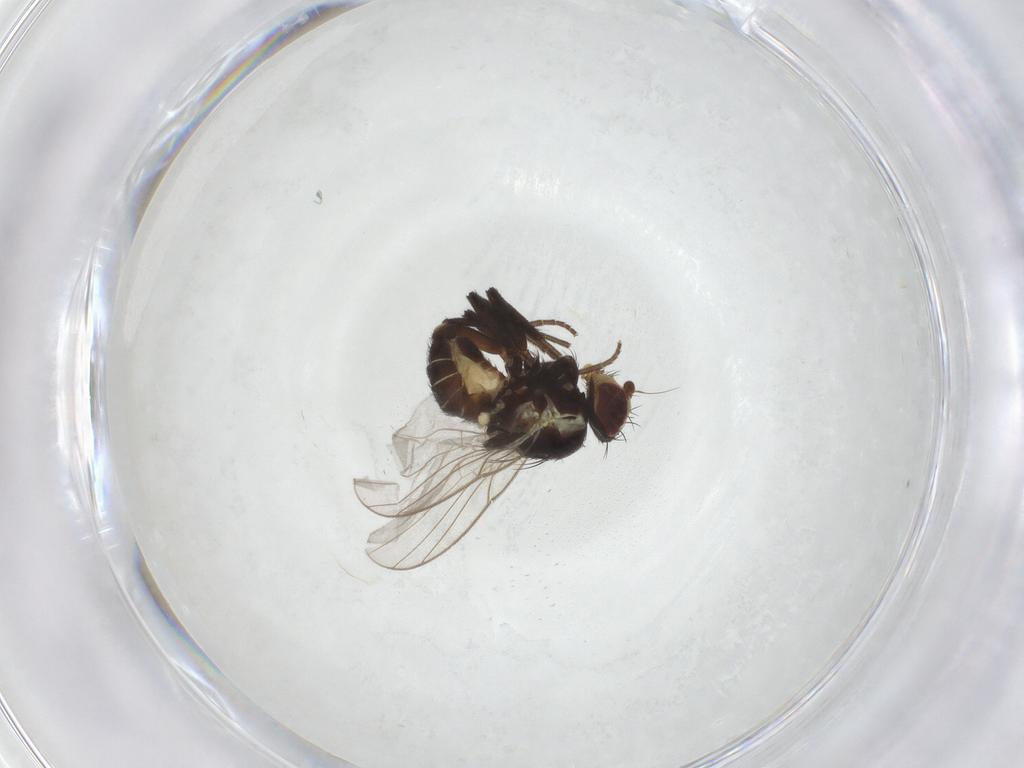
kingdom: Animalia
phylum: Arthropoda
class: Insecta
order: Diptera
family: Agromyzidae
